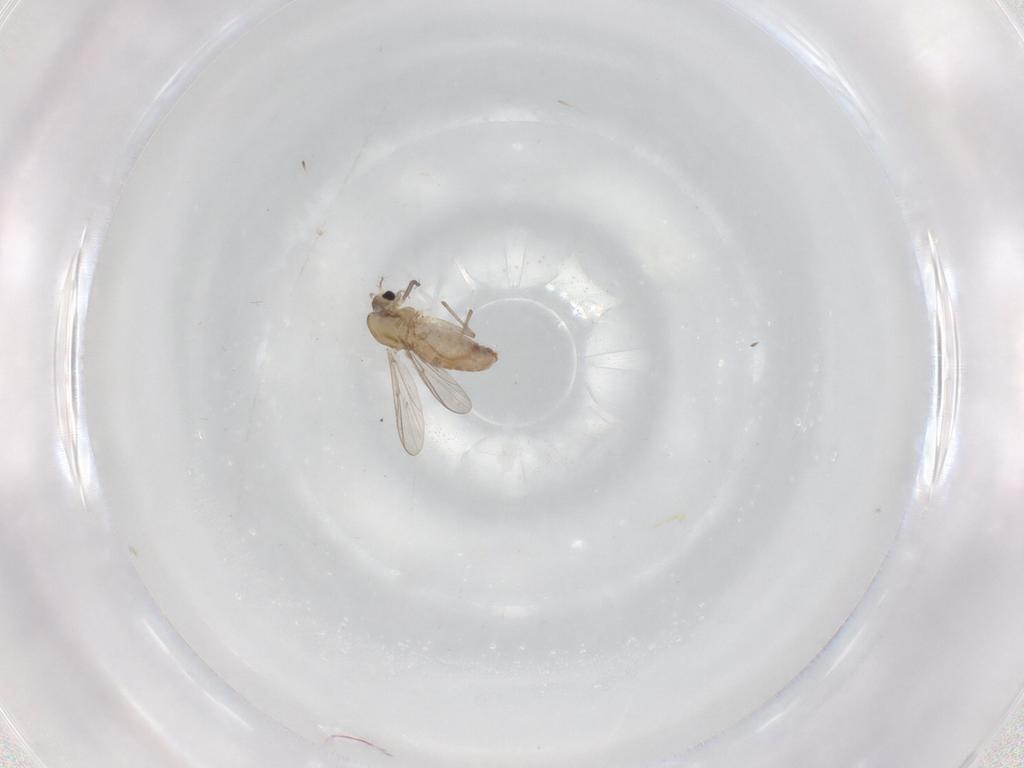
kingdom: Animalia
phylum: Arthropoda
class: Insecta
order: Diptera
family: Chironomidae
